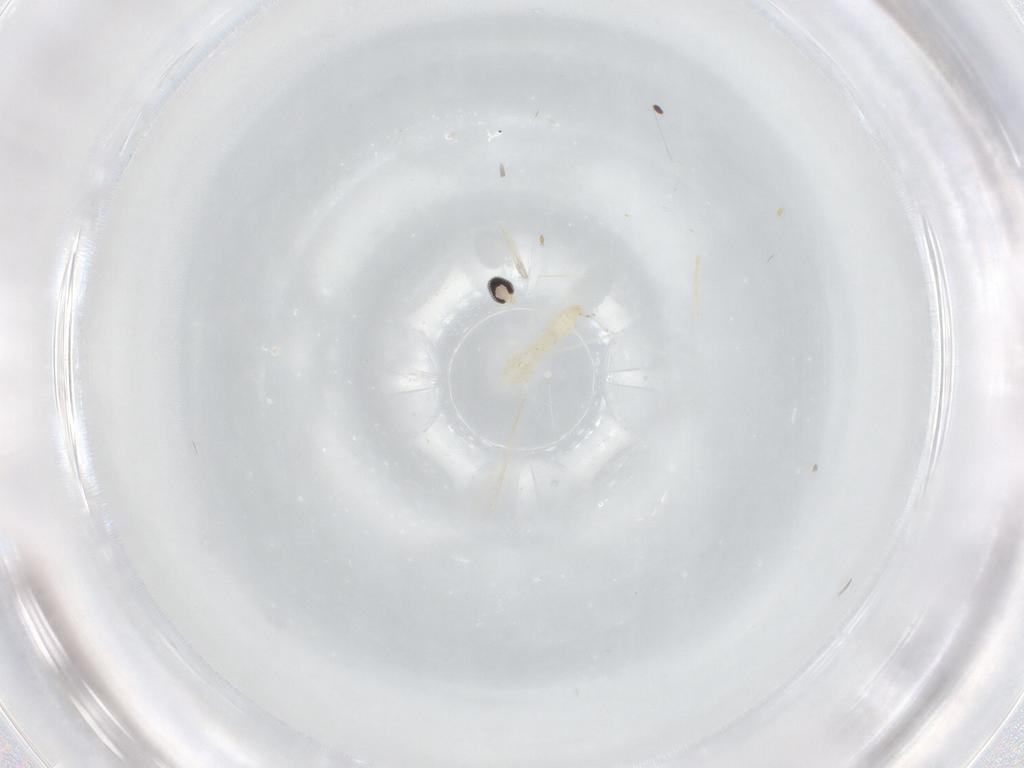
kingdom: Animalia
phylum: Arthropoda
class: Insecta
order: Diptera
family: Cecidomyiidae
